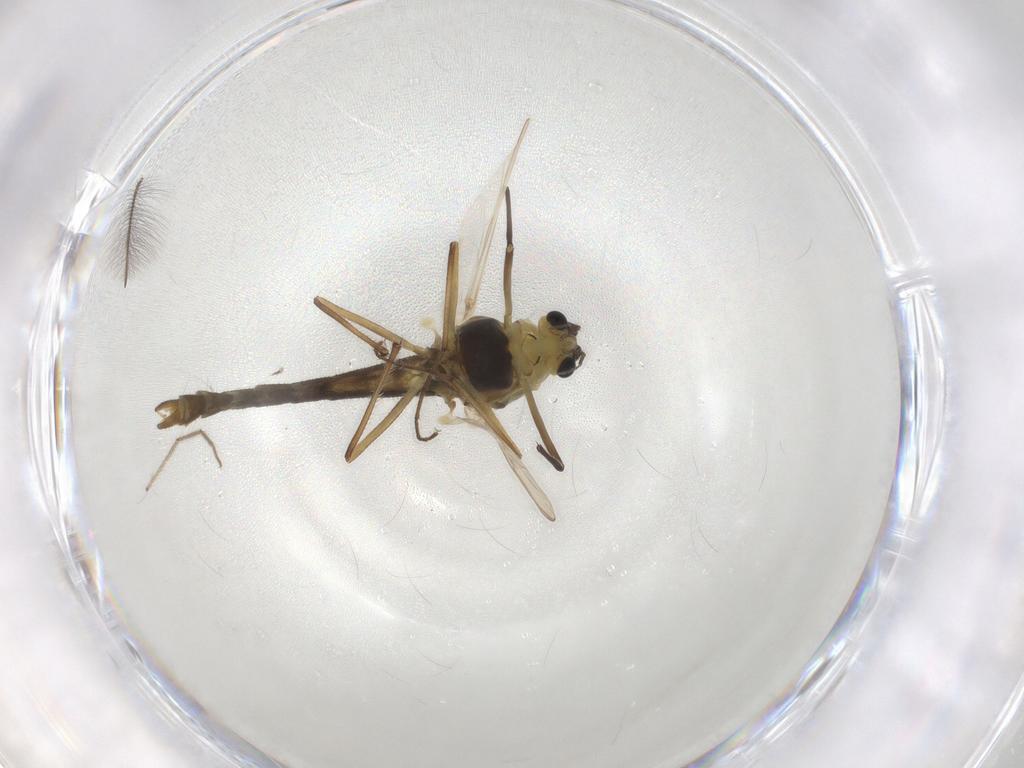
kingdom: Animalia
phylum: Arthropoda
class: Insecta
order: Diptera
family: Chironomidae
